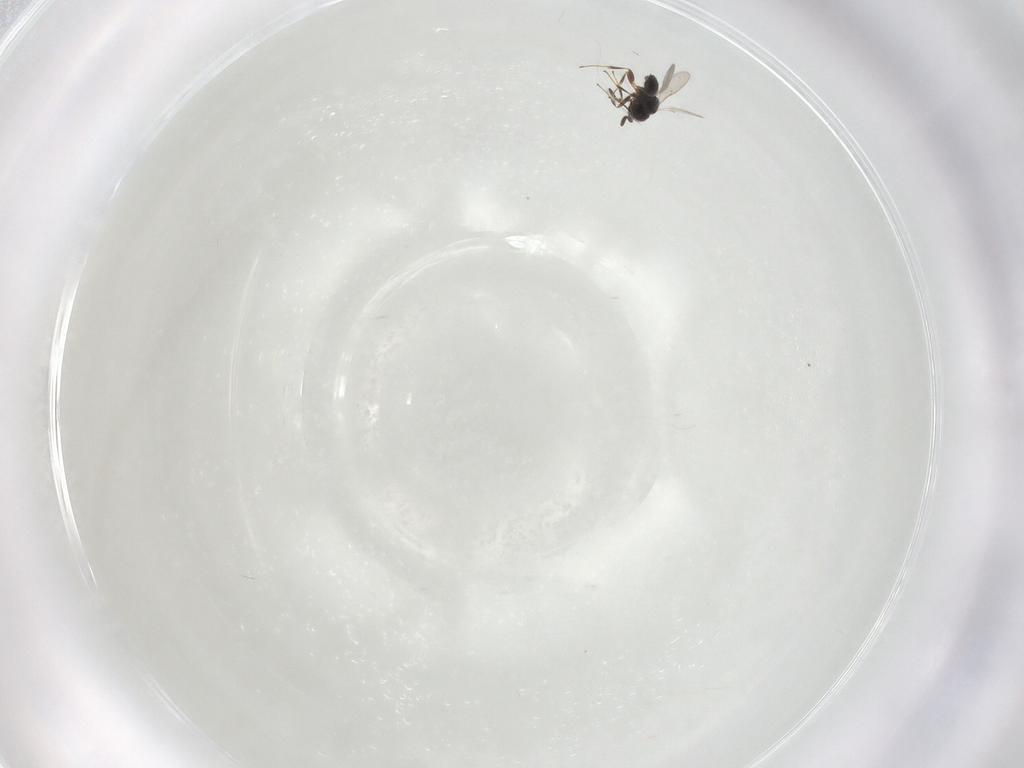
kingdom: Animalia
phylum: Arthropoda
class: Insecta
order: Hymenoptera
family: Scelionidae
